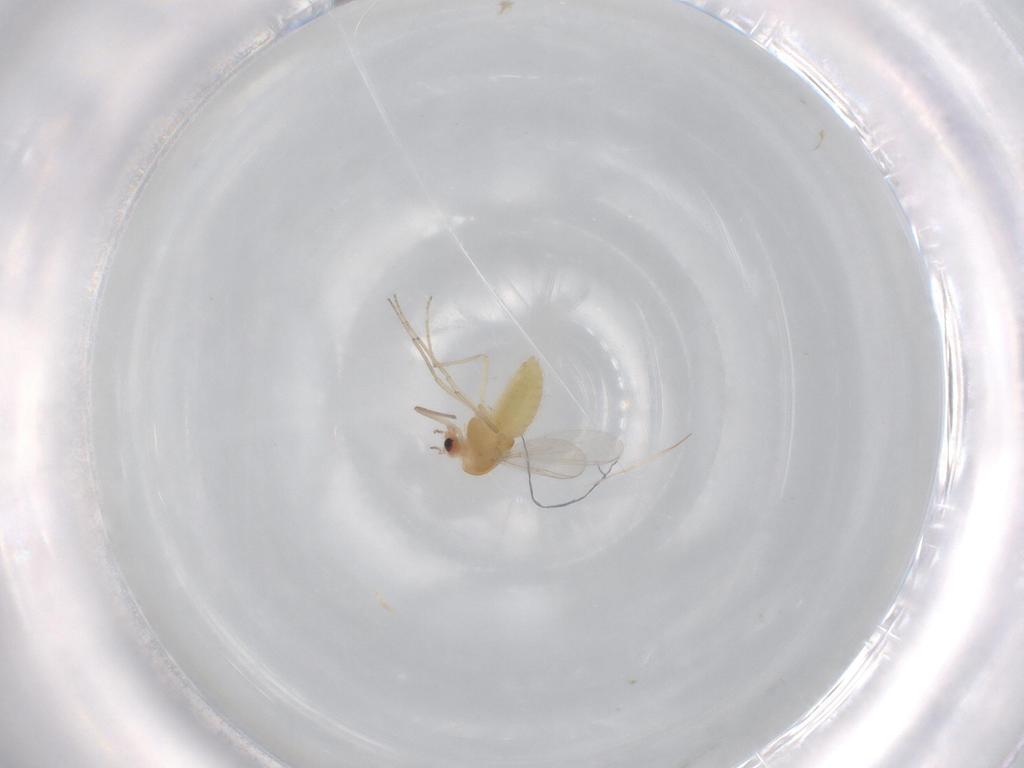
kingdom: Animalia
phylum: Arthropoda
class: Insecta
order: Diptera
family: Chironomidae
